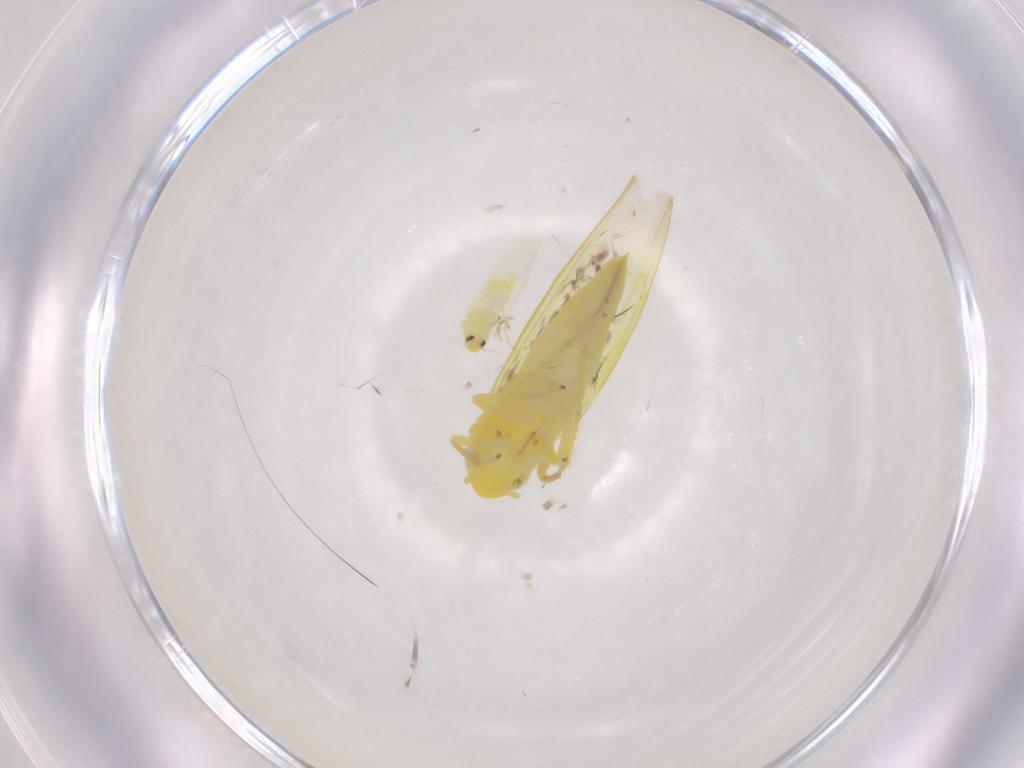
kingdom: Animalia
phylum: Arthropoda
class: Insecta
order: Hemiptera
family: Aleyrodidae
